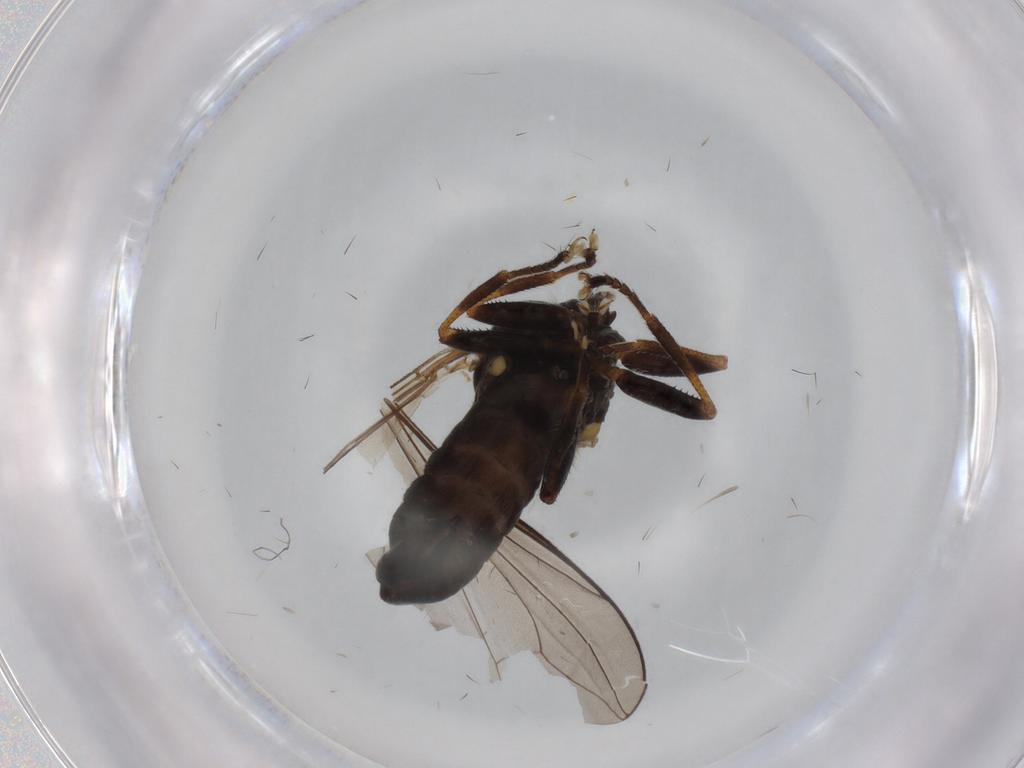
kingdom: Animalia
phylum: Arthropoda
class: Insecta
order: Diptera
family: Pipunculidae
